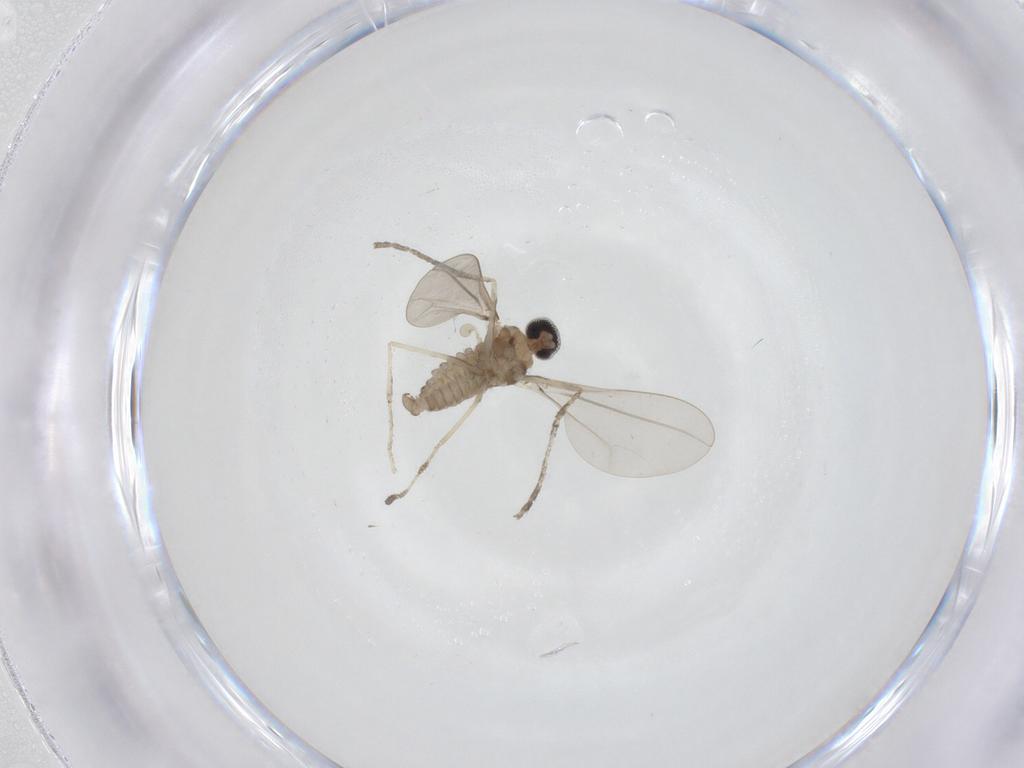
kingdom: Animalia
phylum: Arthropoda
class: Insecta
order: Diptera
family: Cecidomyiidae
